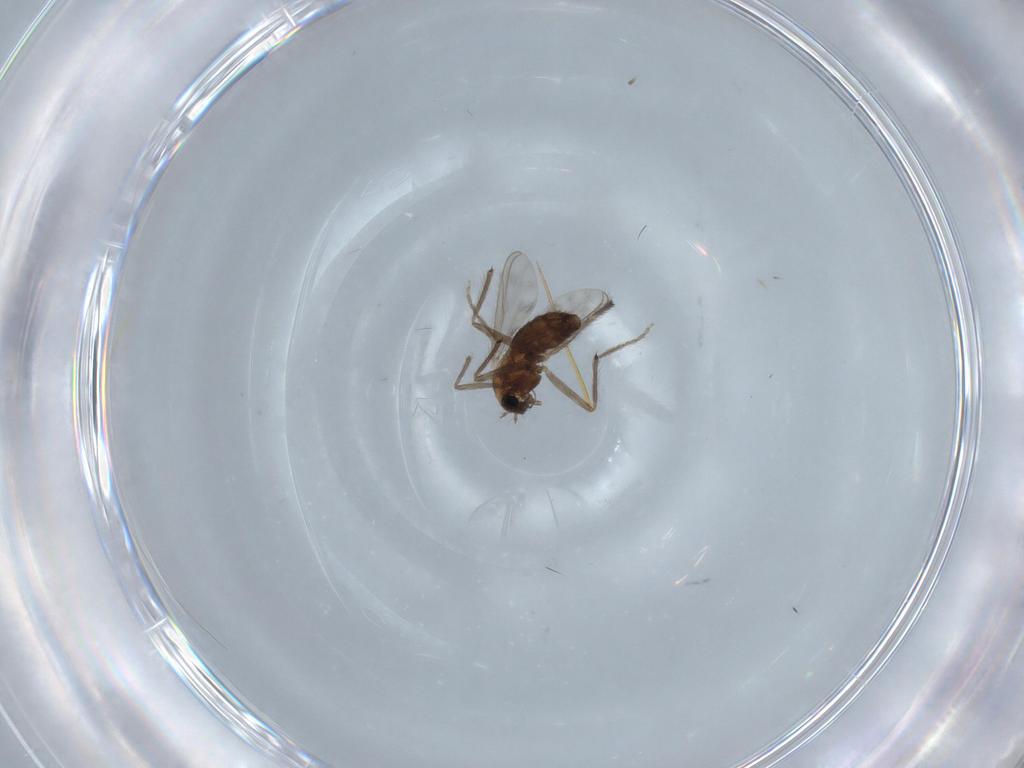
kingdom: Animalia
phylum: Arthropoda
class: Insecta
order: Diptera
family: Chironomidae
